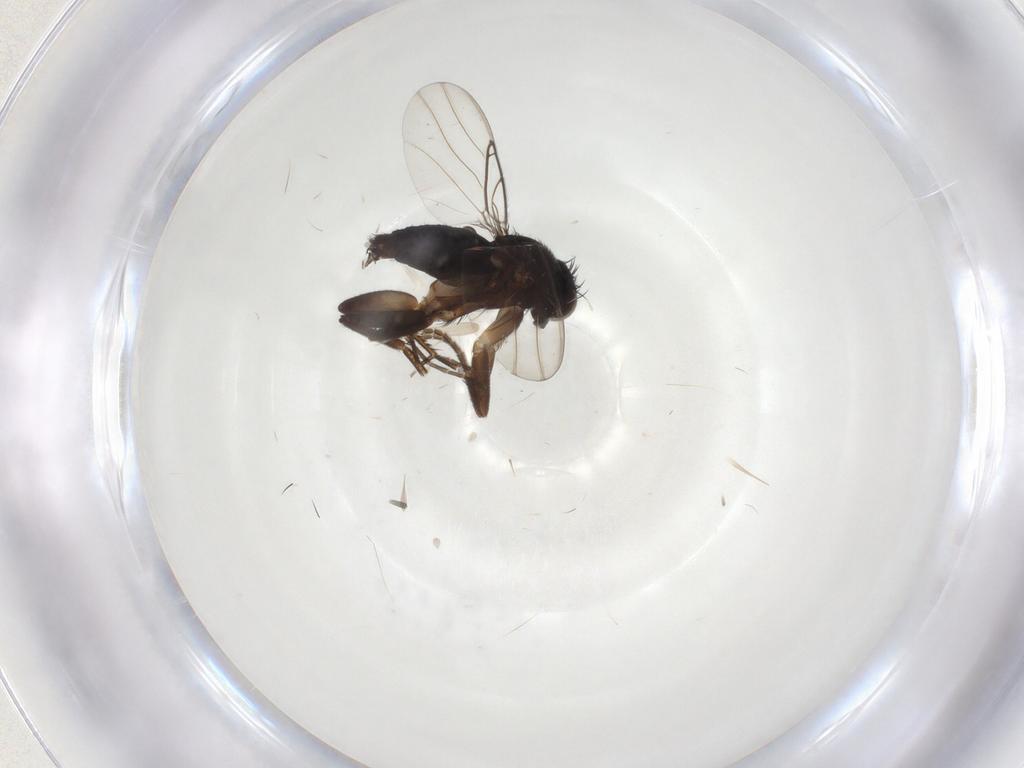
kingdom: Animalia
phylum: Arthropoda
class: Insecta
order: Diptera
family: Phoridae
